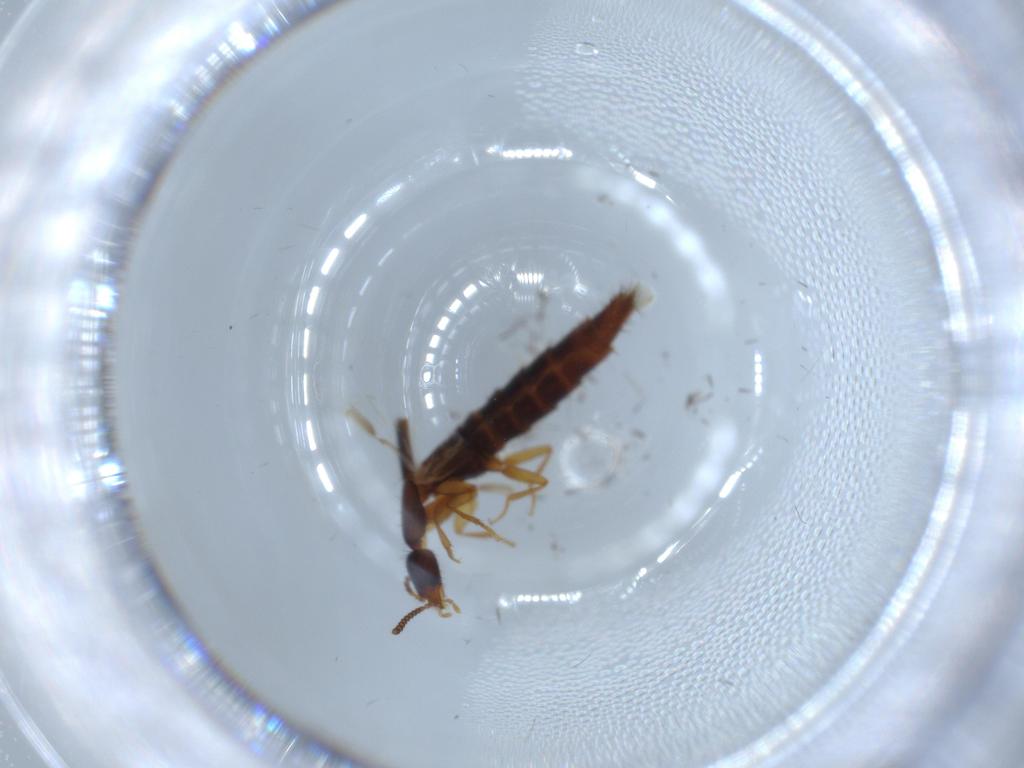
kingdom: Animalia
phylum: Arthropoda
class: Insecta
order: Coleoptera
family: Staphylinidae
